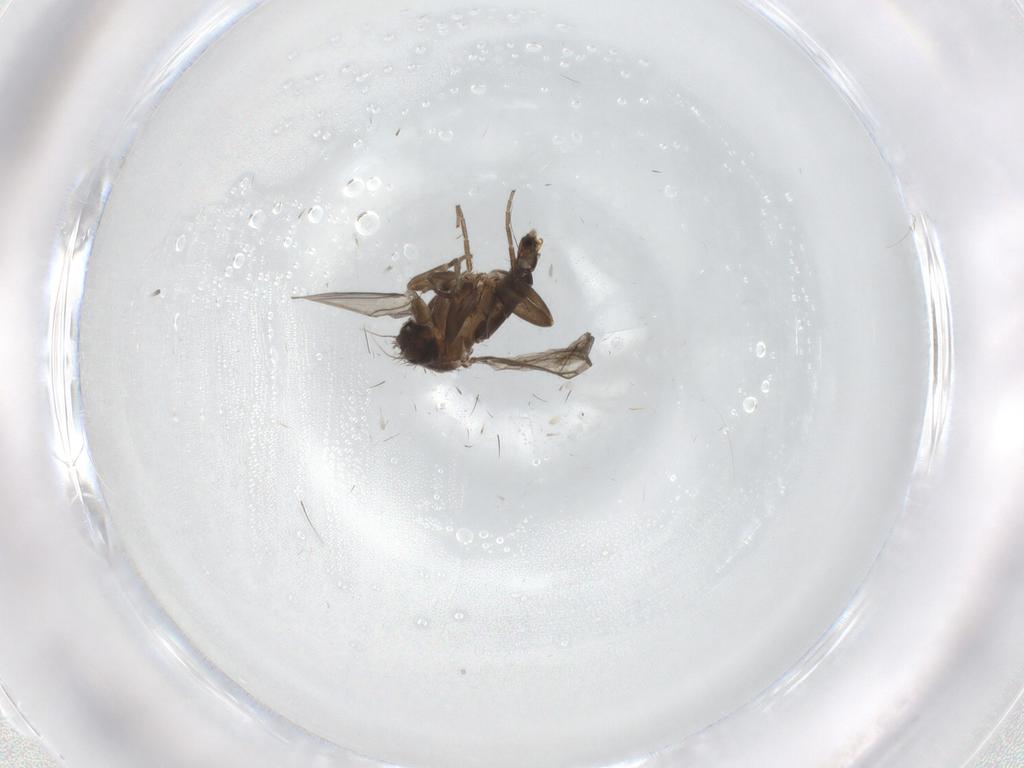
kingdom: Animalia
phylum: Arthropoda
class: Insecta
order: Diptera
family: Phoridae
